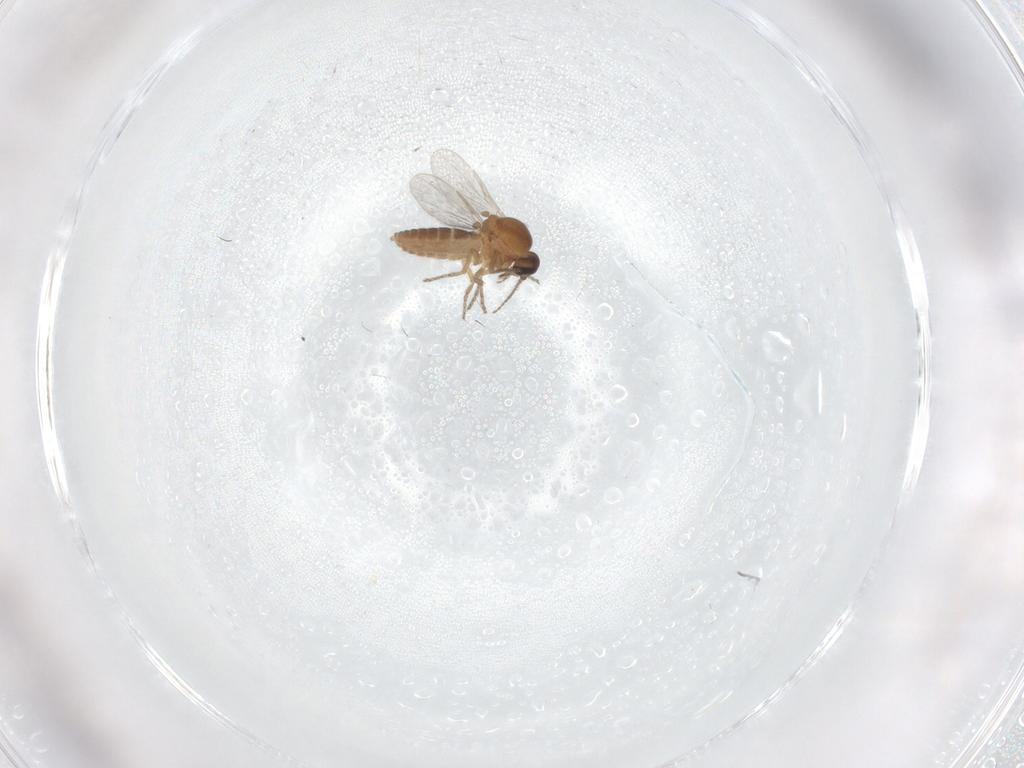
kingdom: Animalia
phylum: Arthropoda
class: Insecta
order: Diptera
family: Ceratopogonidae
